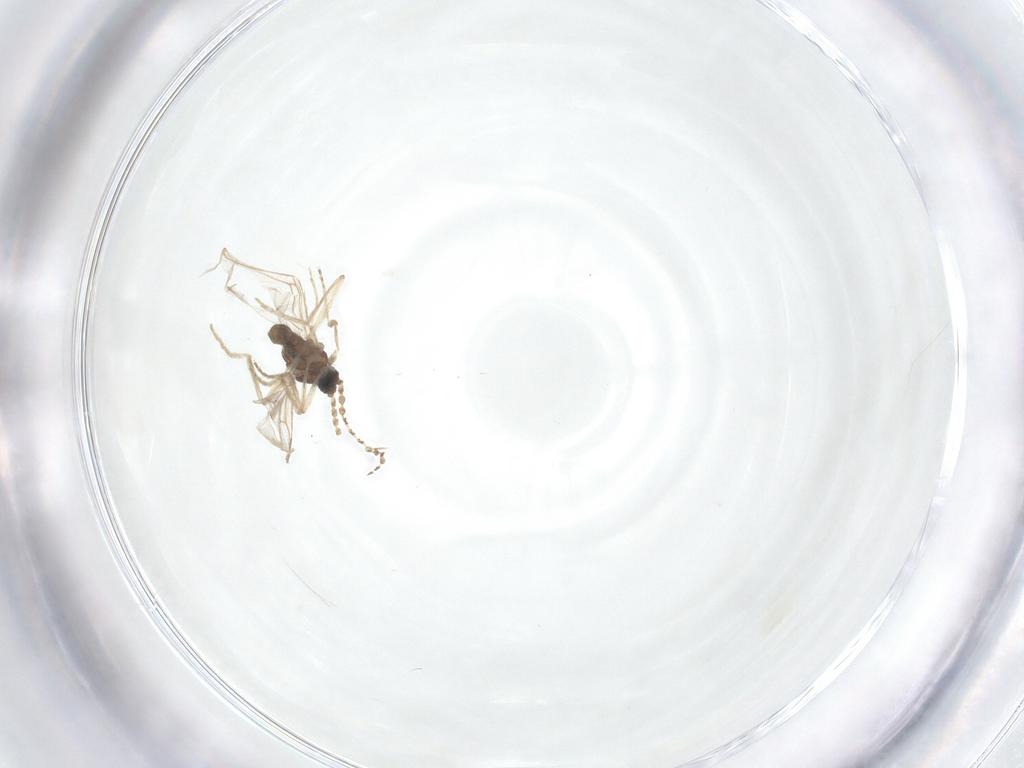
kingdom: Animalia
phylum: Arthropoda
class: Insecta
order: Diptera
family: Cecidomyiidae
